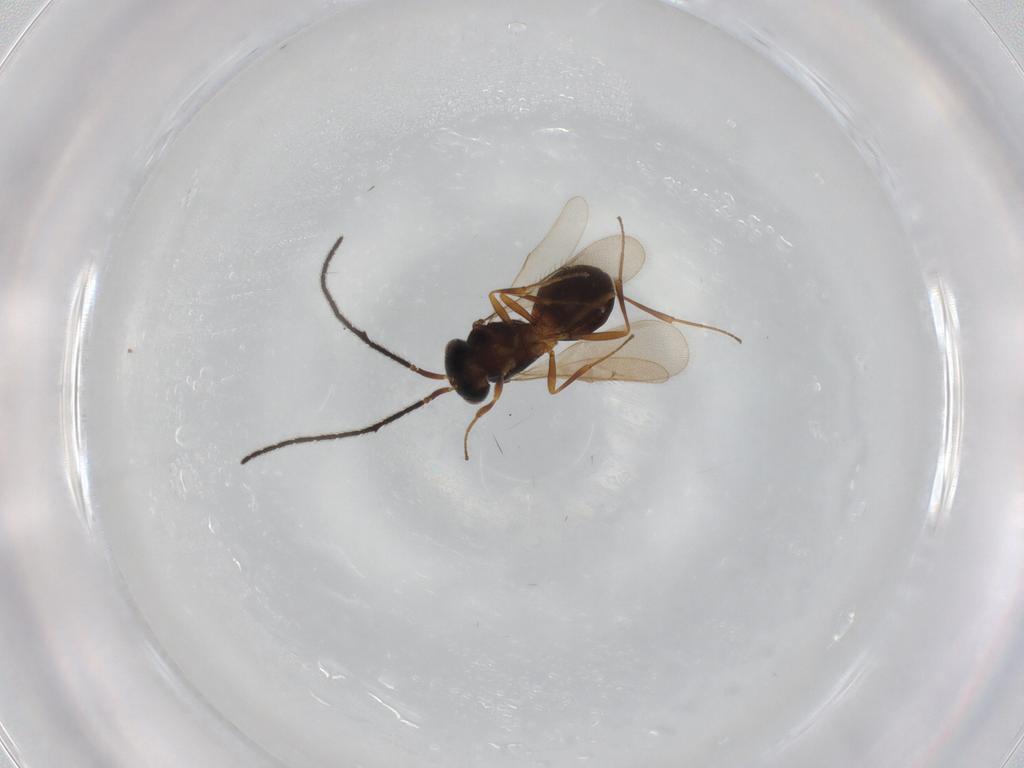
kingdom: Animalia
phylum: Arthropoda
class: Insecta
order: Hymenoptera
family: Scelionidae
